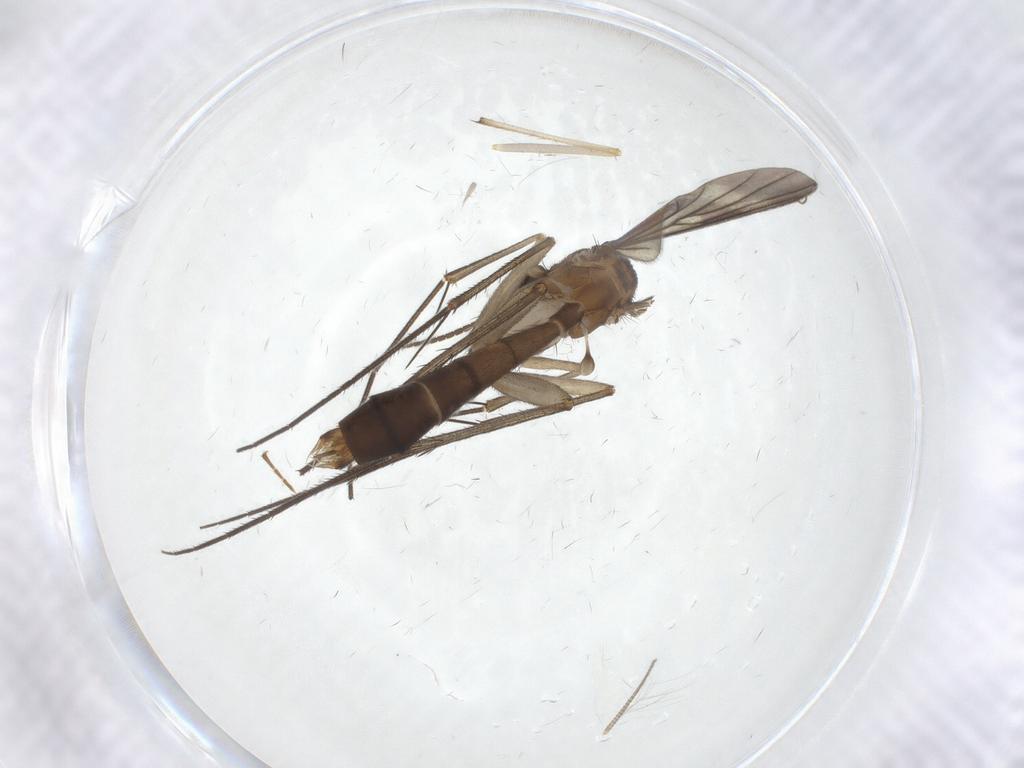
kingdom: Animalia
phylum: Arthropoda
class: Insecta
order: Diptera
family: Mycetophilidae
